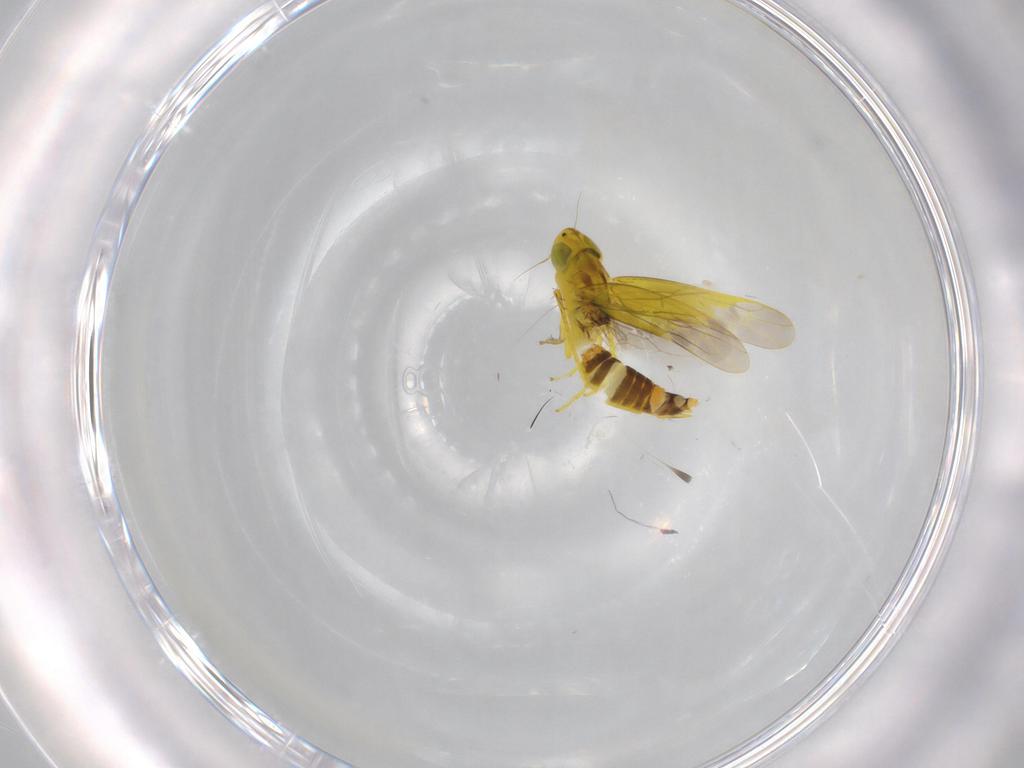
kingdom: Animalia
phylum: Arthropoda
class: Insecta
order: Hemiptera
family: Cicadellidae
